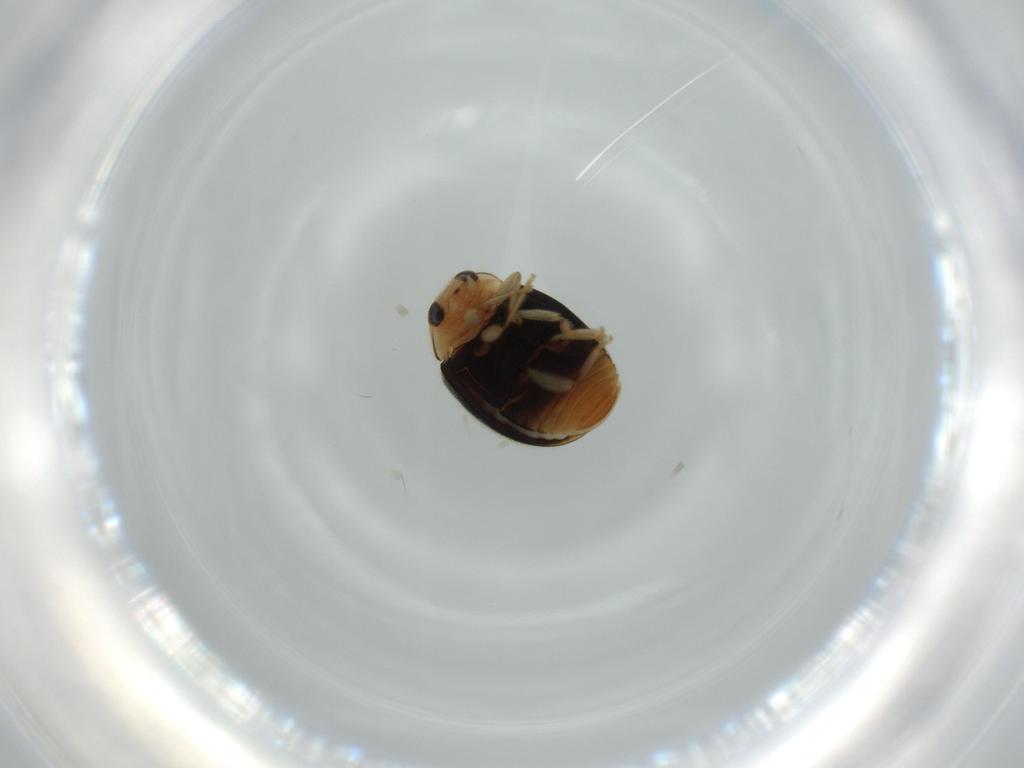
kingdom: Animalia
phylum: Arthropoda
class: Insecta
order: Coleoptera
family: Coccinellidae
